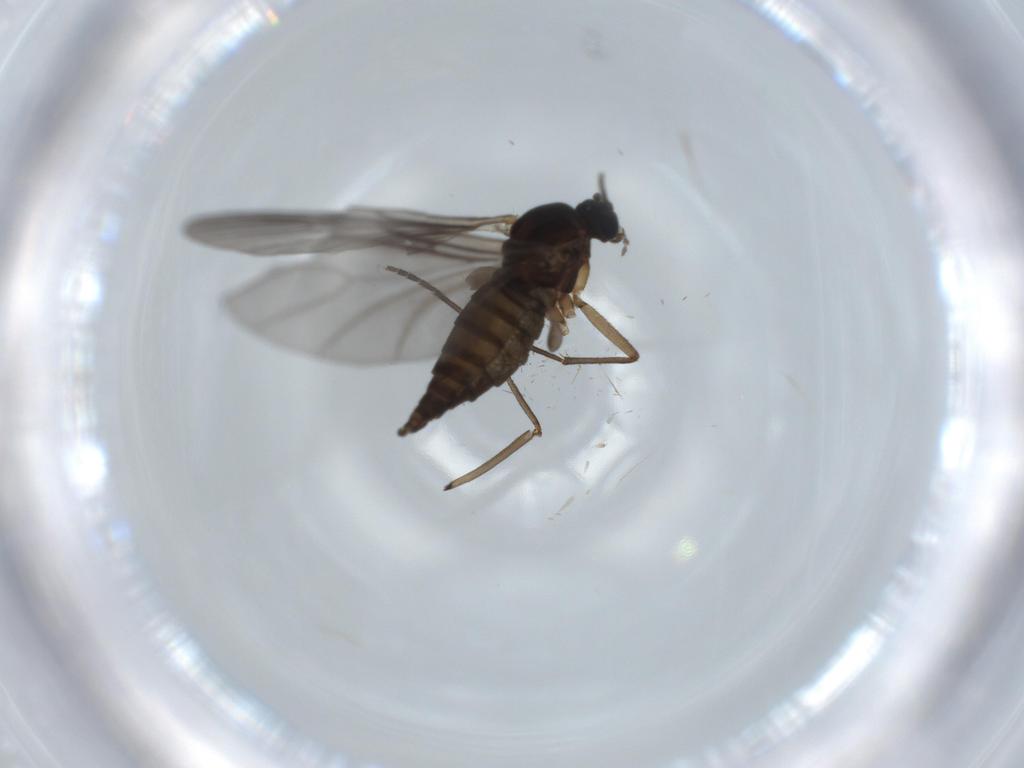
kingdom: Animalia
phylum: Arthropoda
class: Insecta
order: Diptera
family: Sciaridae
